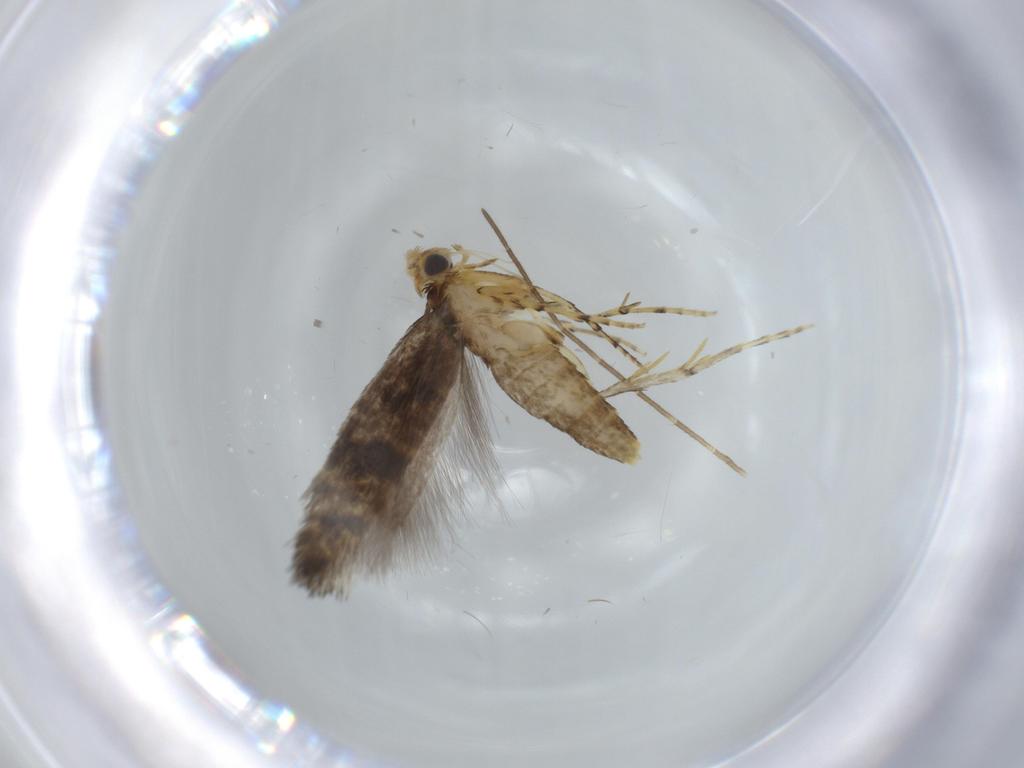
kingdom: Animalia
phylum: Arthropoda
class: Insecta
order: Lepidoptera
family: Argyresthiidae
